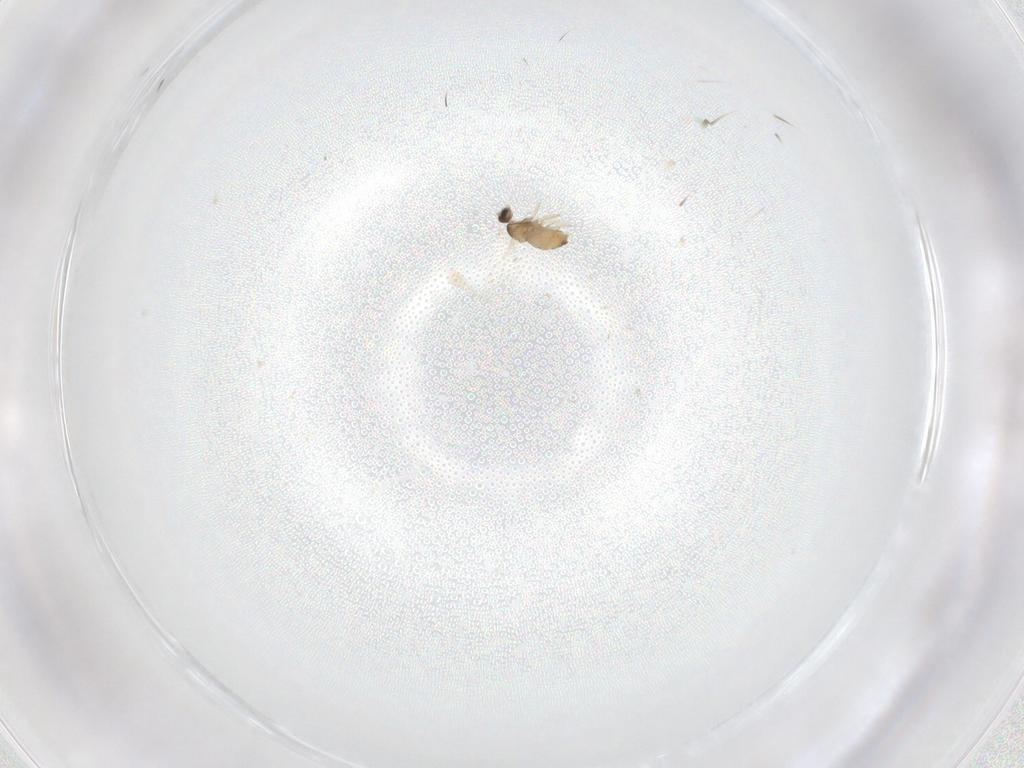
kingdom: Animalia
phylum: Arthropoda
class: Insecta
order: Diptera
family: Cecidomyiidae
